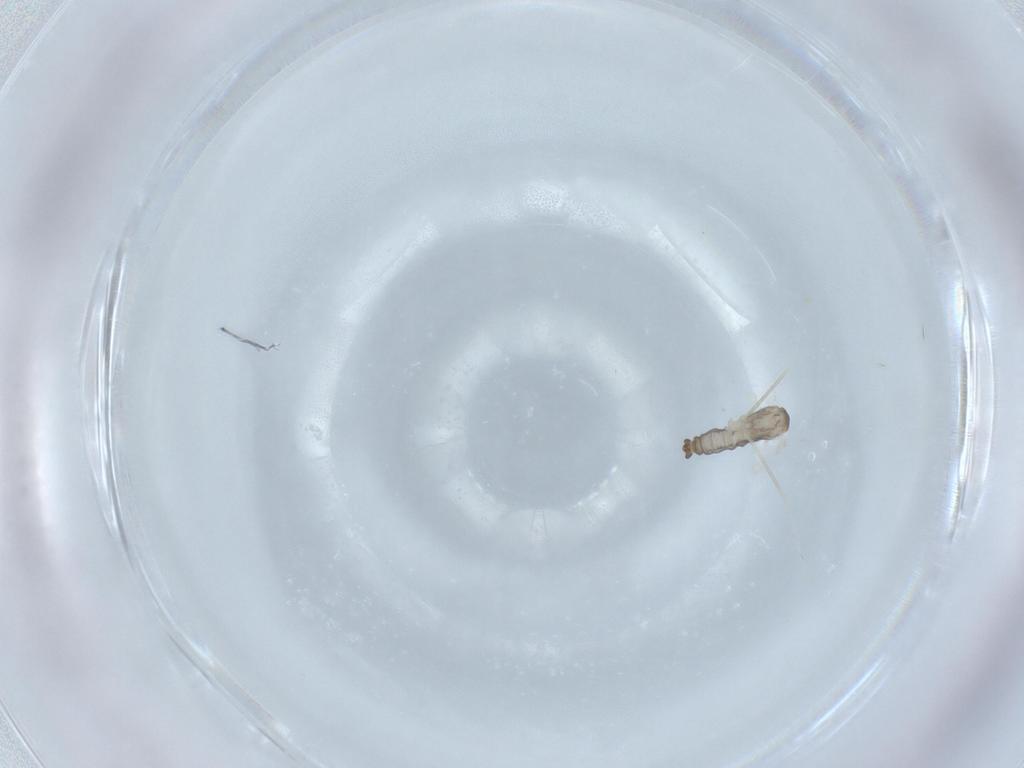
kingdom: Animalia
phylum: Arthropoda
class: Insecta
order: Diptera
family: Cecidomyiidae
